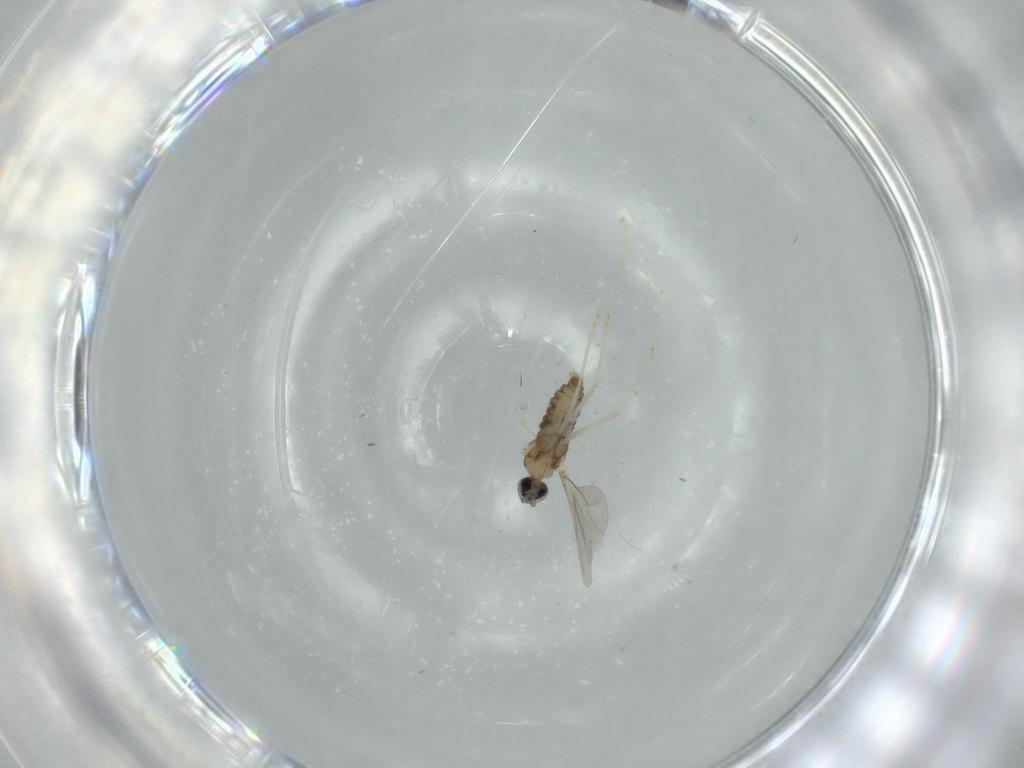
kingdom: Animalia
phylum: Arthropoda
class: Insecta
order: Diptera
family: Cecidomyiidae
